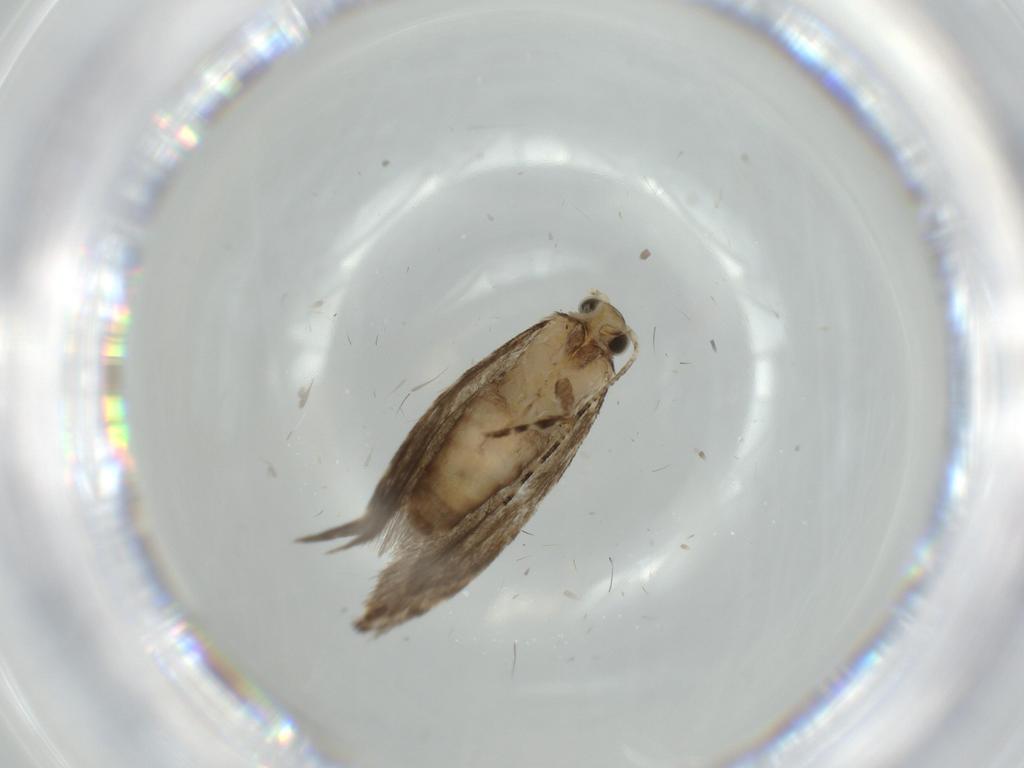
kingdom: Animalia
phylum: Arthropoda
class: Insecta
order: Lepidoptera
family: Tineidae
